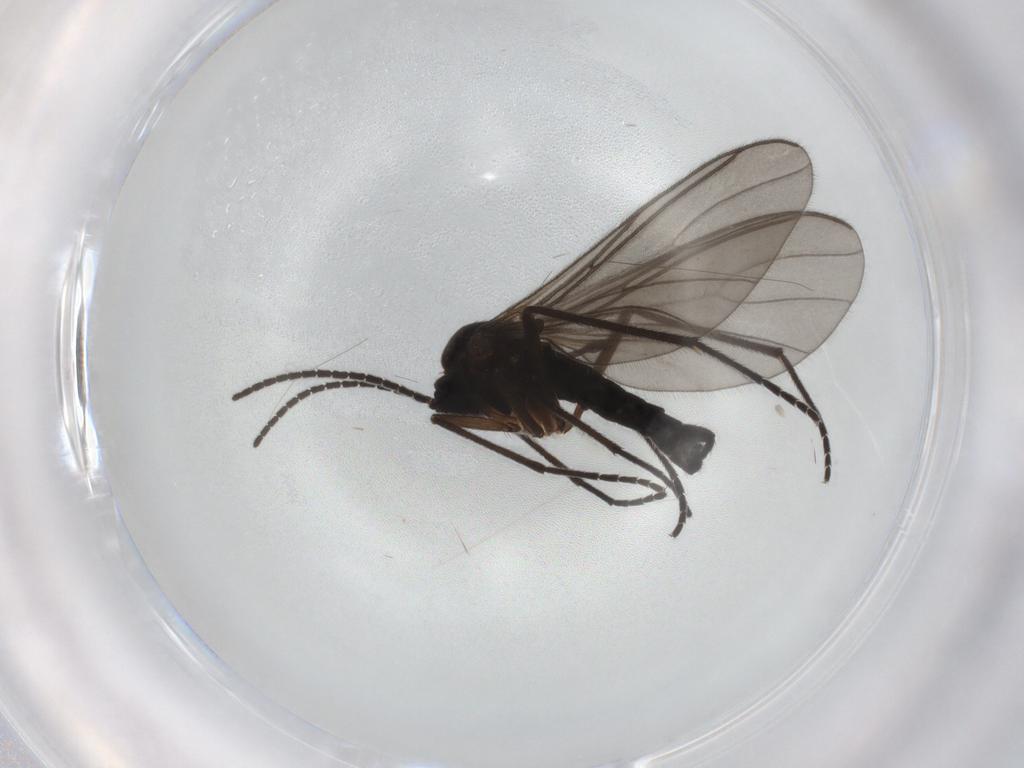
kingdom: Animalia
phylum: Arthropoda
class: Insecta
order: Diptera
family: Sciaridae
